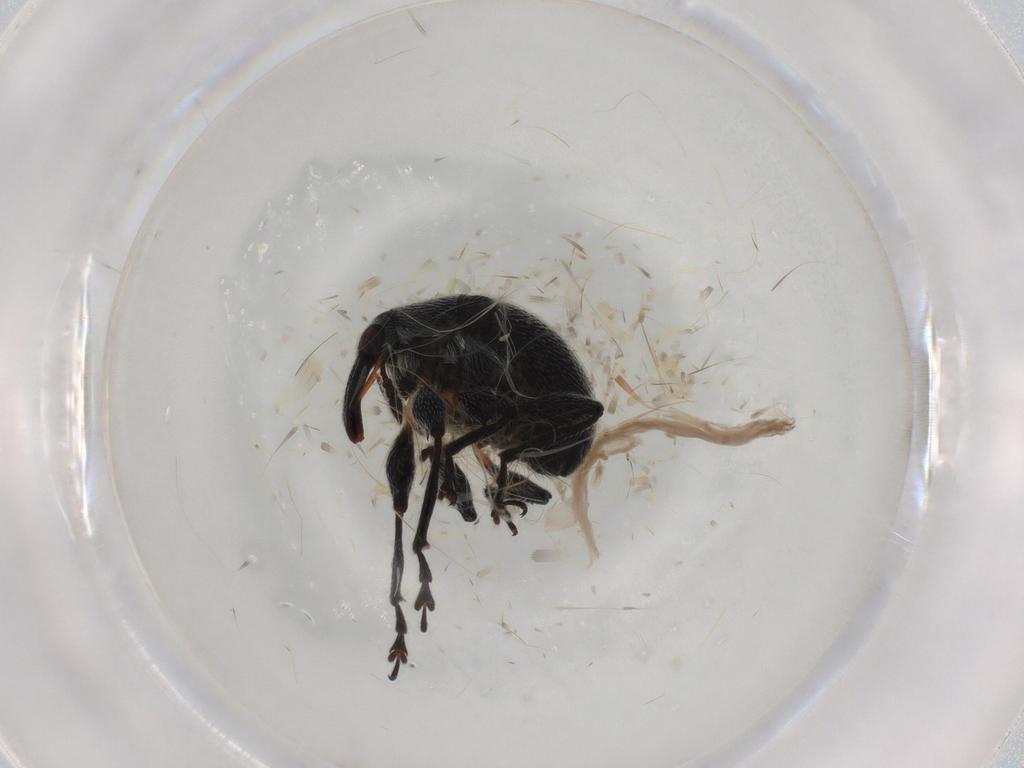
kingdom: Animalia
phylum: Arthropoda
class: Insecta
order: Coleoptera
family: Brentidae
